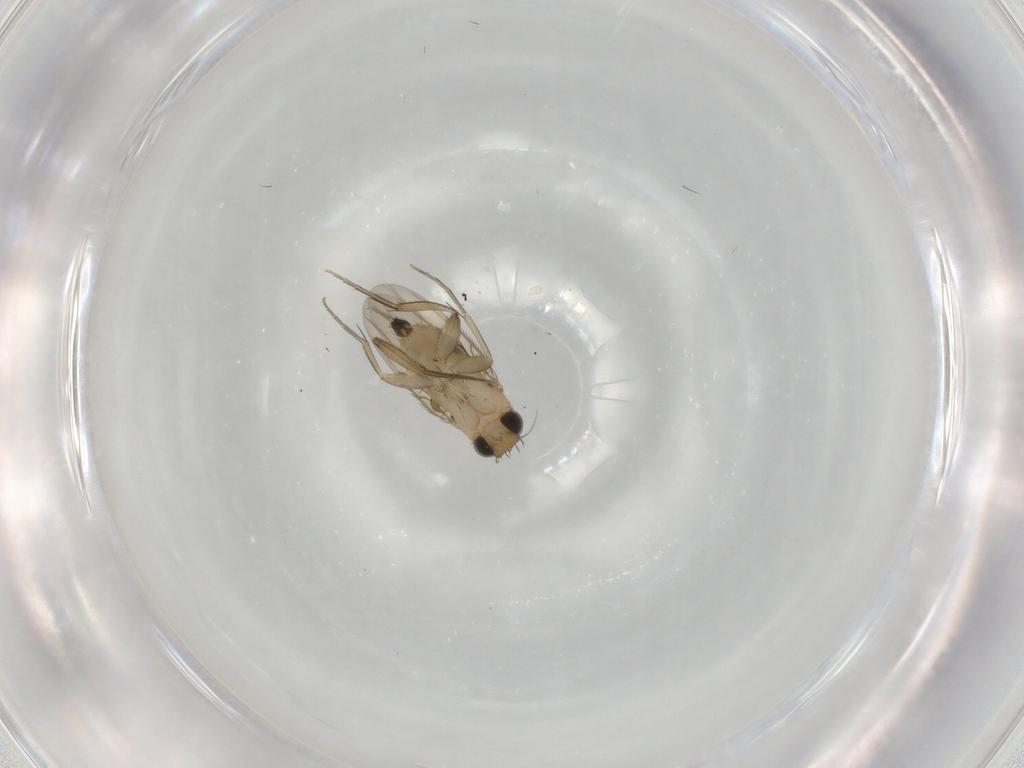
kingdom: Animalia
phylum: Arthropoda
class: Insecta
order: Diptera
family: Phoridae
